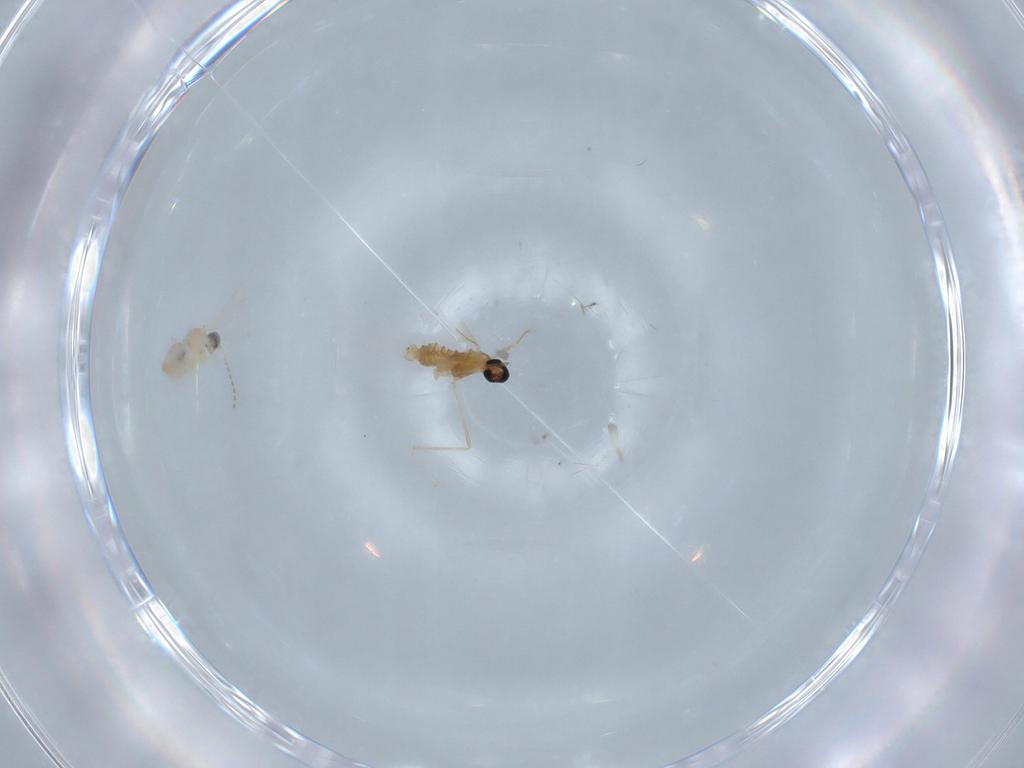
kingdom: Animalia
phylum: Arthropoda
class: Insecta
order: Diptera
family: Cecidomyiidae
